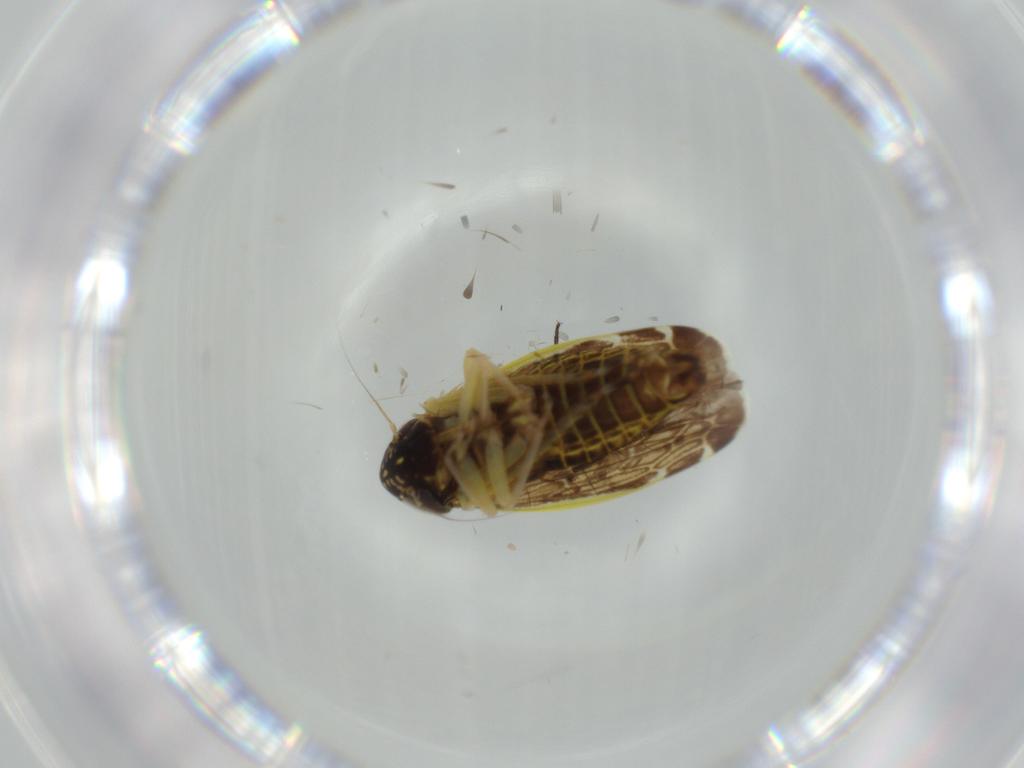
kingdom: Animalia
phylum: Arthropoda
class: Insecta
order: Hemiptera
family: Cicadellidae
